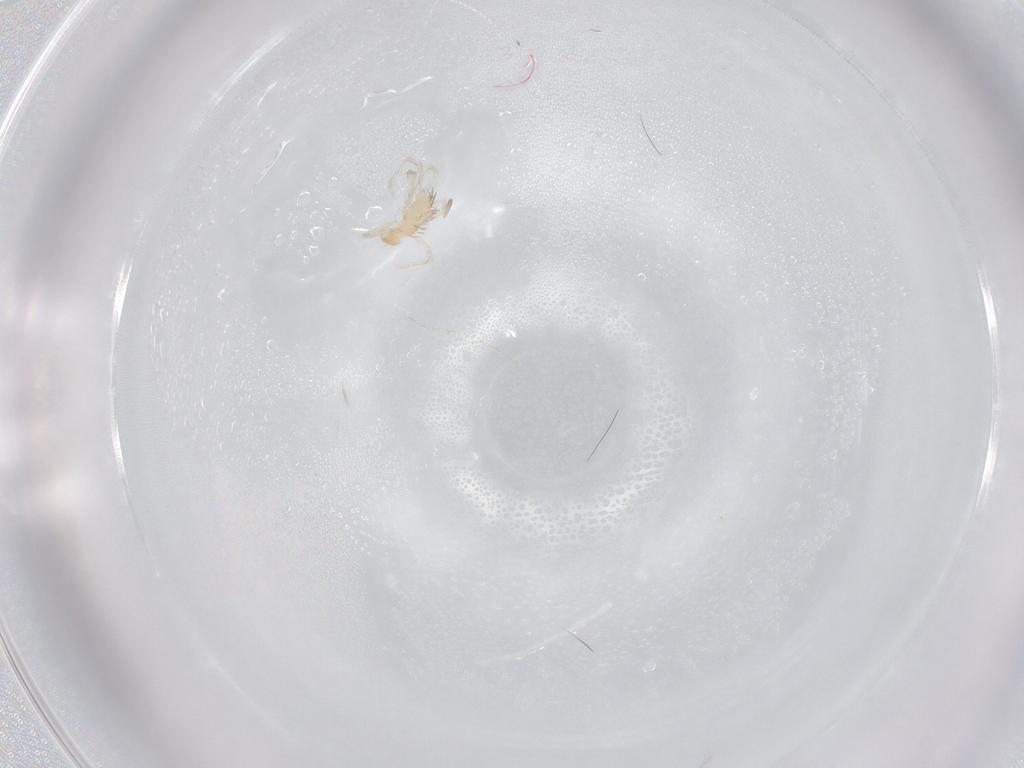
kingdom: Animalia
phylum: Arthropoda
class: Arachnida
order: Trombidiformes
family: Erythraeidae
